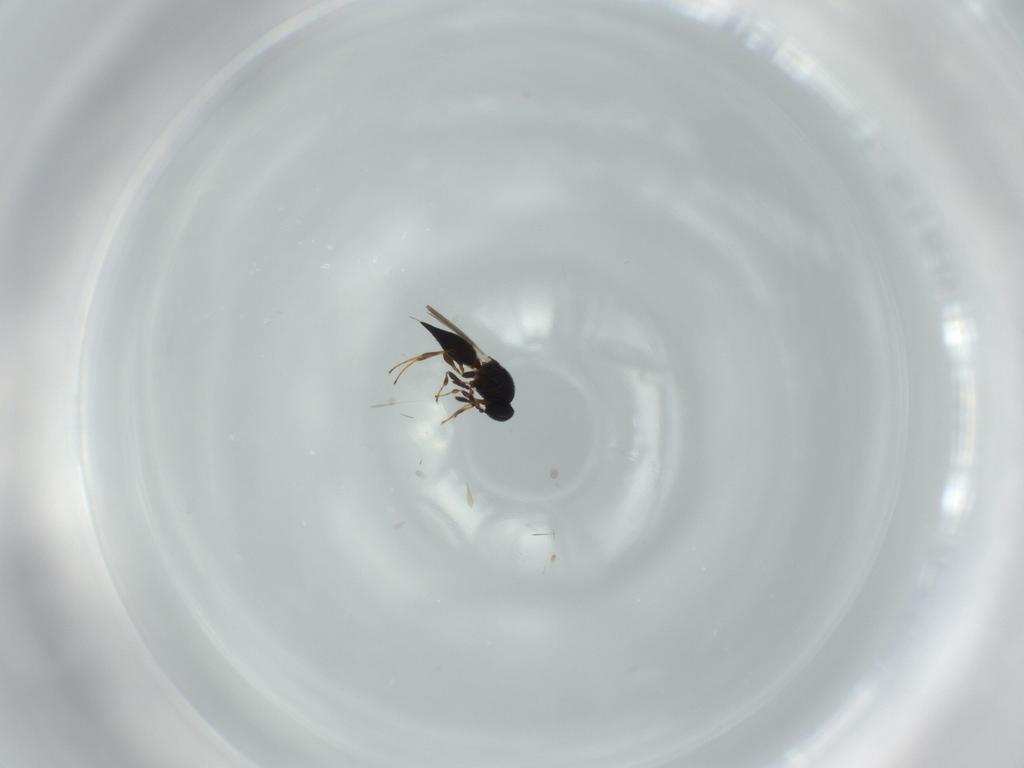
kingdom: Animalia
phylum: Arthropoda
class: Insecta
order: Hymenoptera
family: Platygastridae
